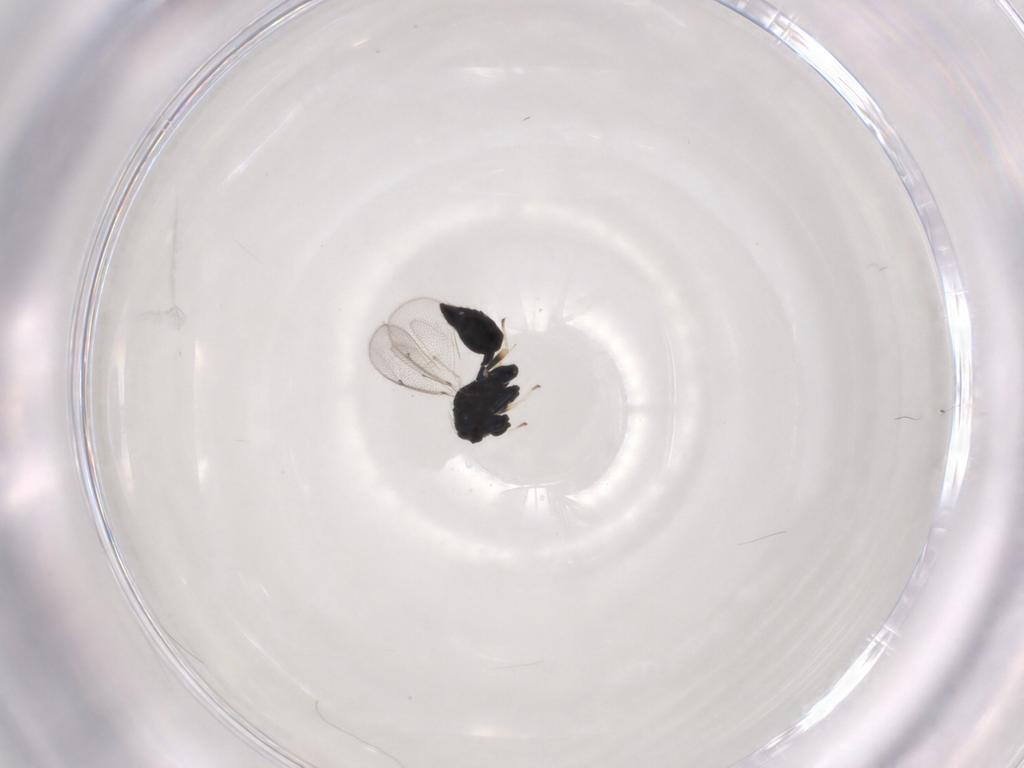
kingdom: Animalia
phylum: Arthropoda
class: Insecta
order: Hymenoptera
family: Eulophidae
